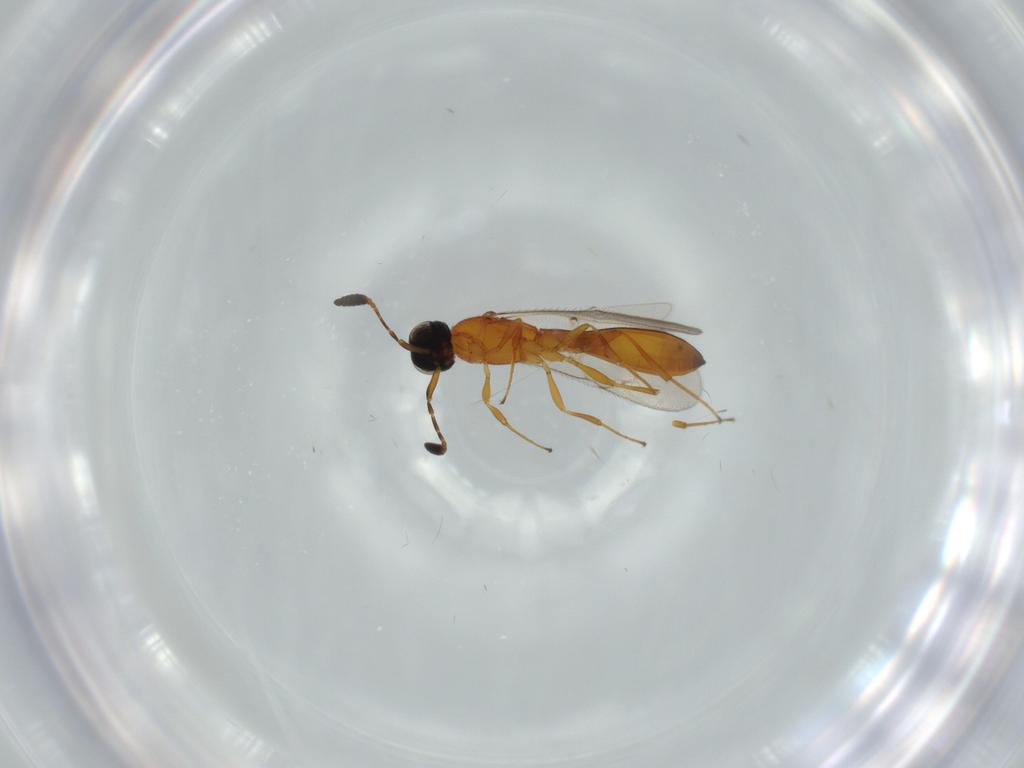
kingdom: Animalia
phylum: Arthropoda
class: Insecta
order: Hymenoptera
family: Scelionidae
